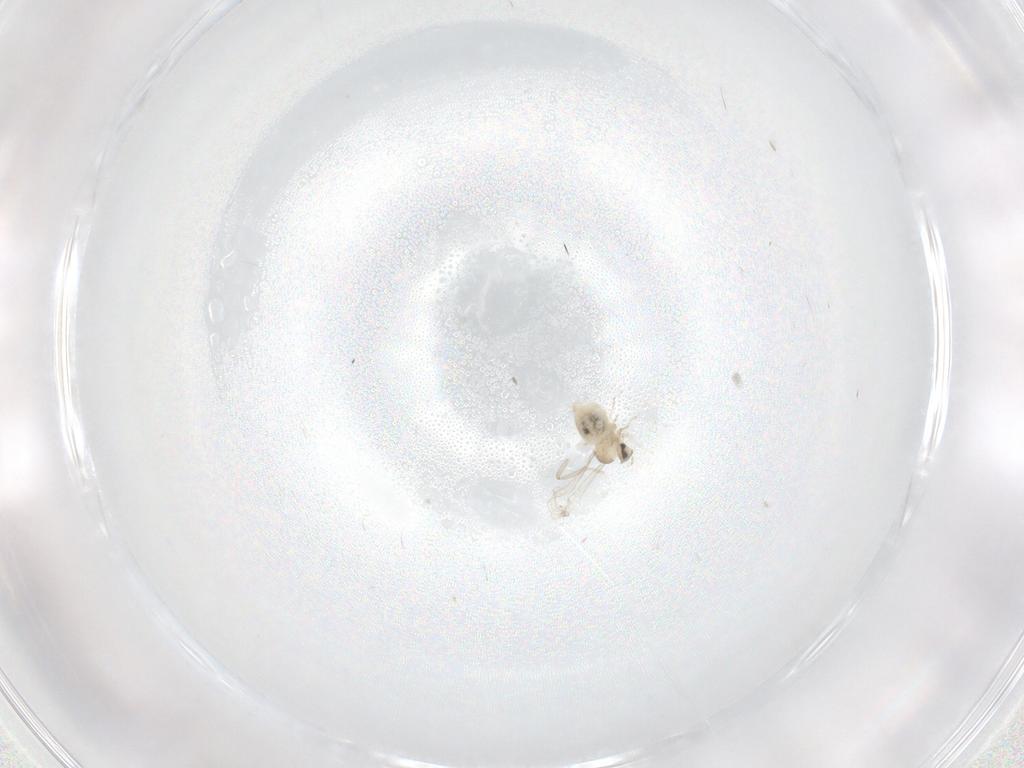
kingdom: Animalia
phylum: Arthropoda
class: Insecta
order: Diptera
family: Cecidomyiidae
